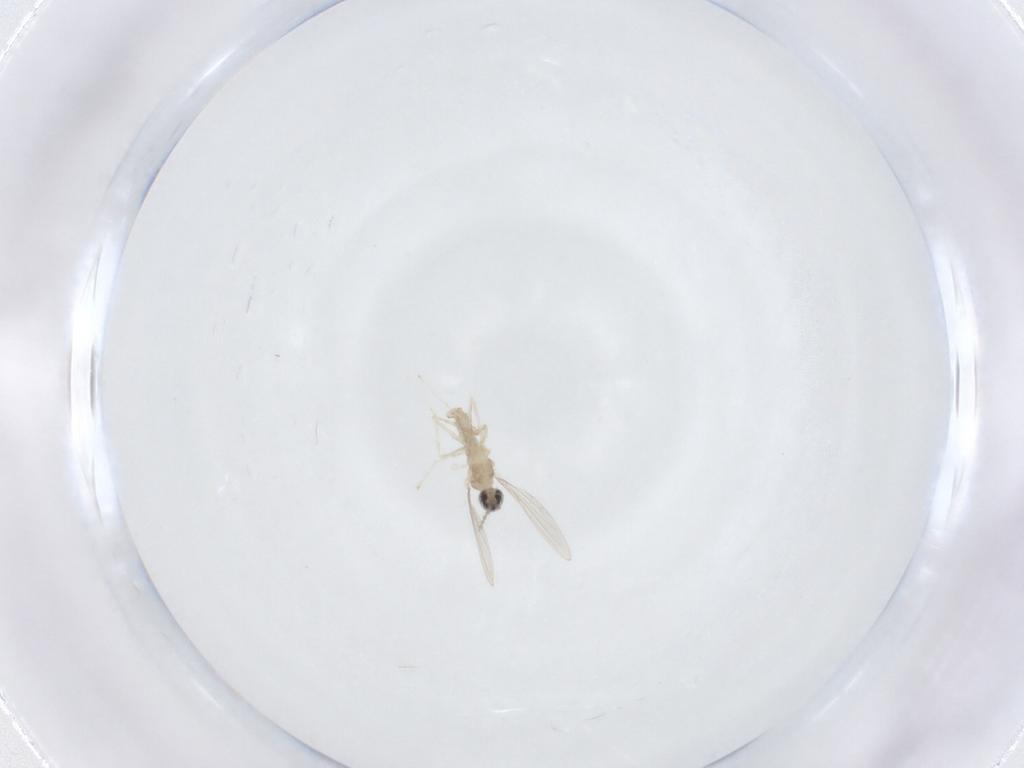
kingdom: Animalia
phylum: Arthropoda
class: Insecta
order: Diptera
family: Cecidomyiidae
